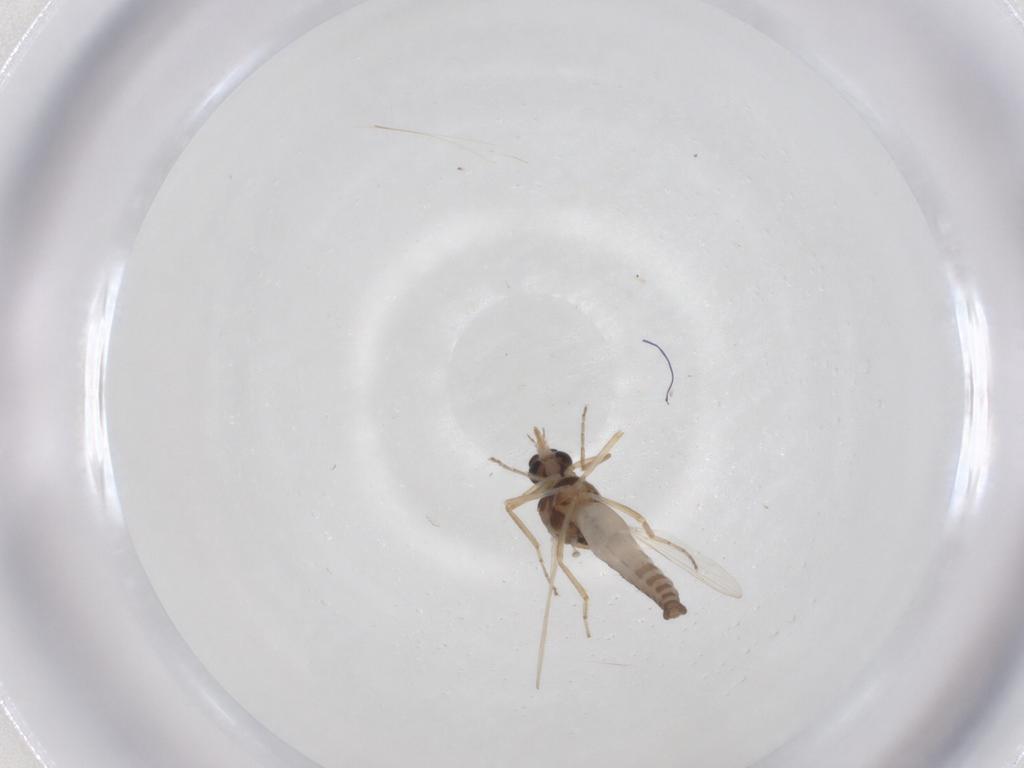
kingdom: Animalia
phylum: Arthropoda
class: Insecta
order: Diptera
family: Ceratopogonidae
